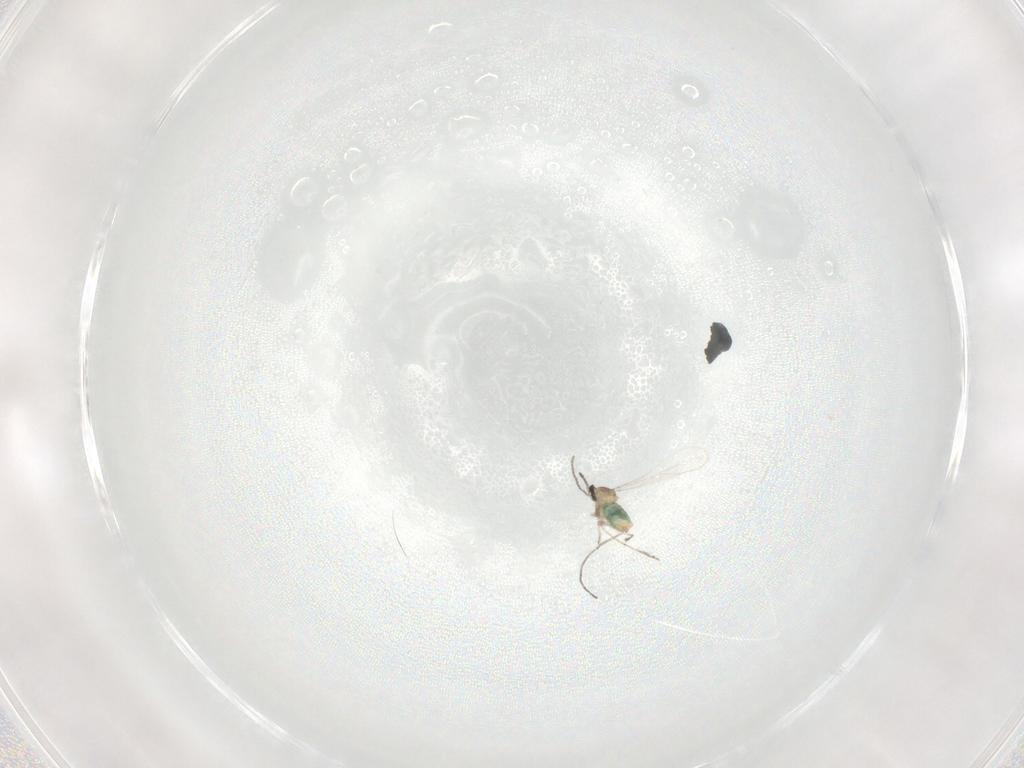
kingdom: Animalia
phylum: Arthropoda
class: Insecta
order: Diptera
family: Cecidomyiidae
